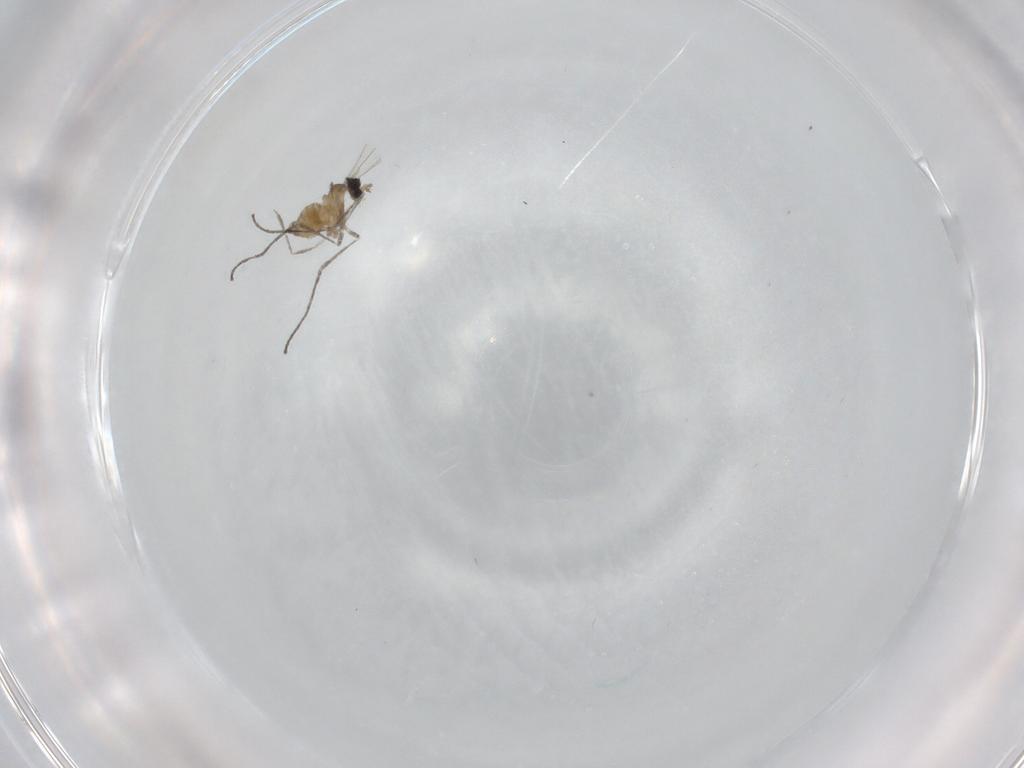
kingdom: Animalia
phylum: Arthropoda
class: Insecta
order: Diptera
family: Cecidomyiidae
